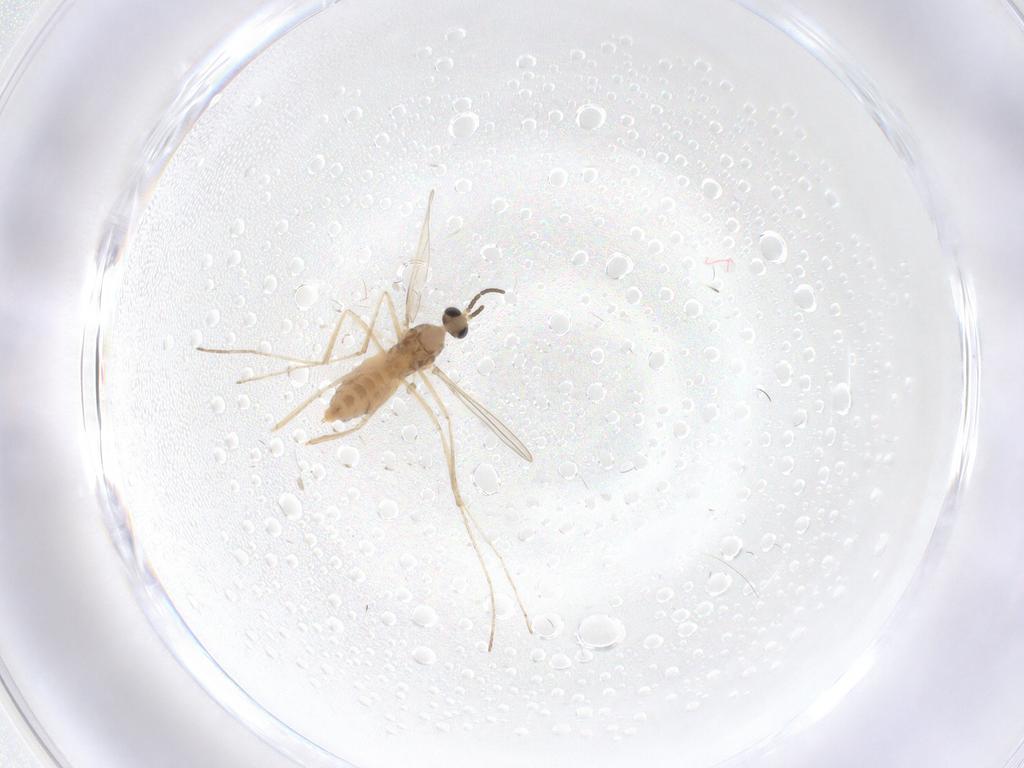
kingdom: Animalia
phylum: Arthropoda
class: Insecta
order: Diptera
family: Cecidomyiidae
